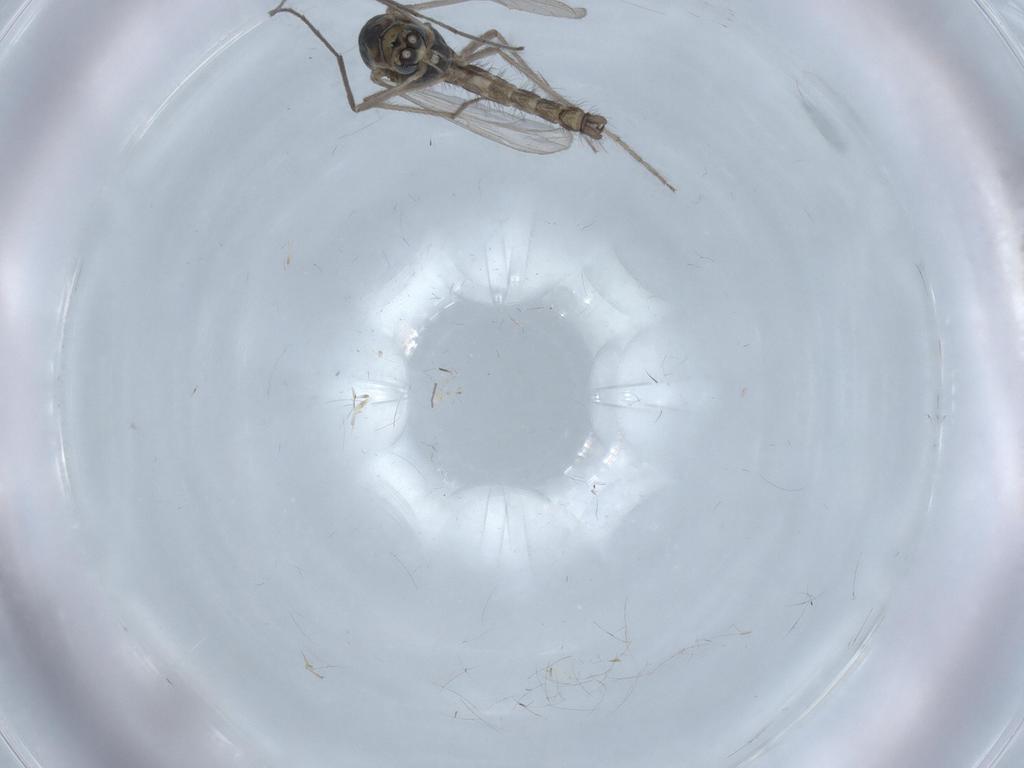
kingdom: Animalia
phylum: Arthropoda
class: Insecta
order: Diptera
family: Chironomidae
